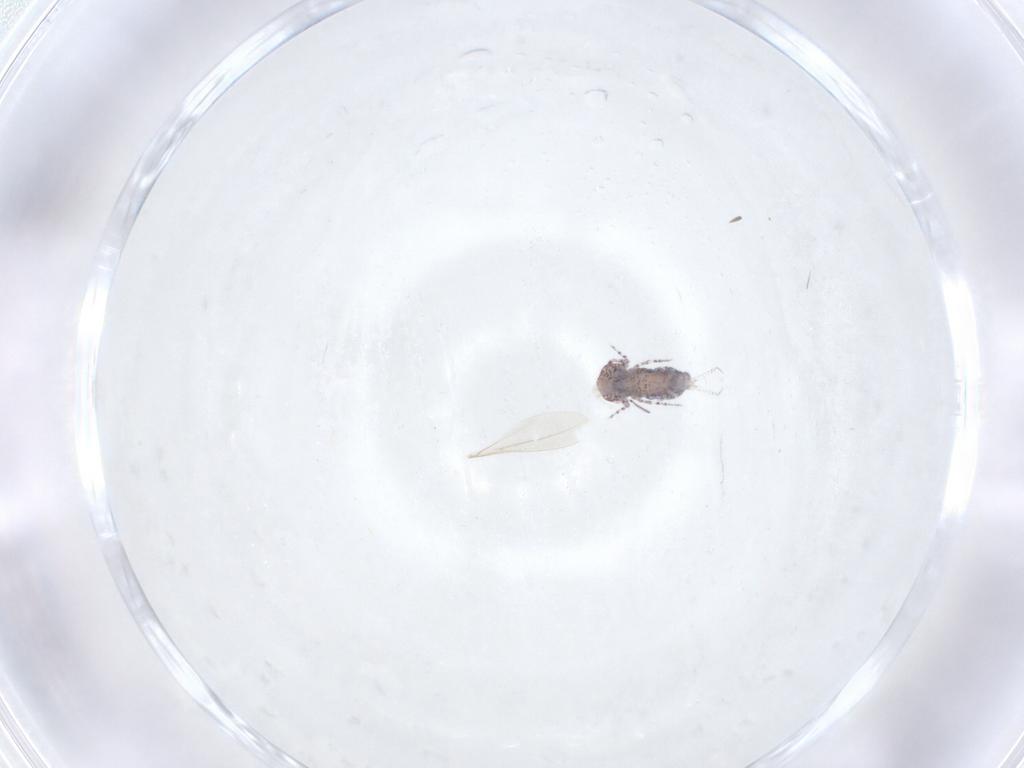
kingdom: Animalia
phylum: Arthropoda
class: Collembola
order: Symphypleona
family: Bourletiellidae
